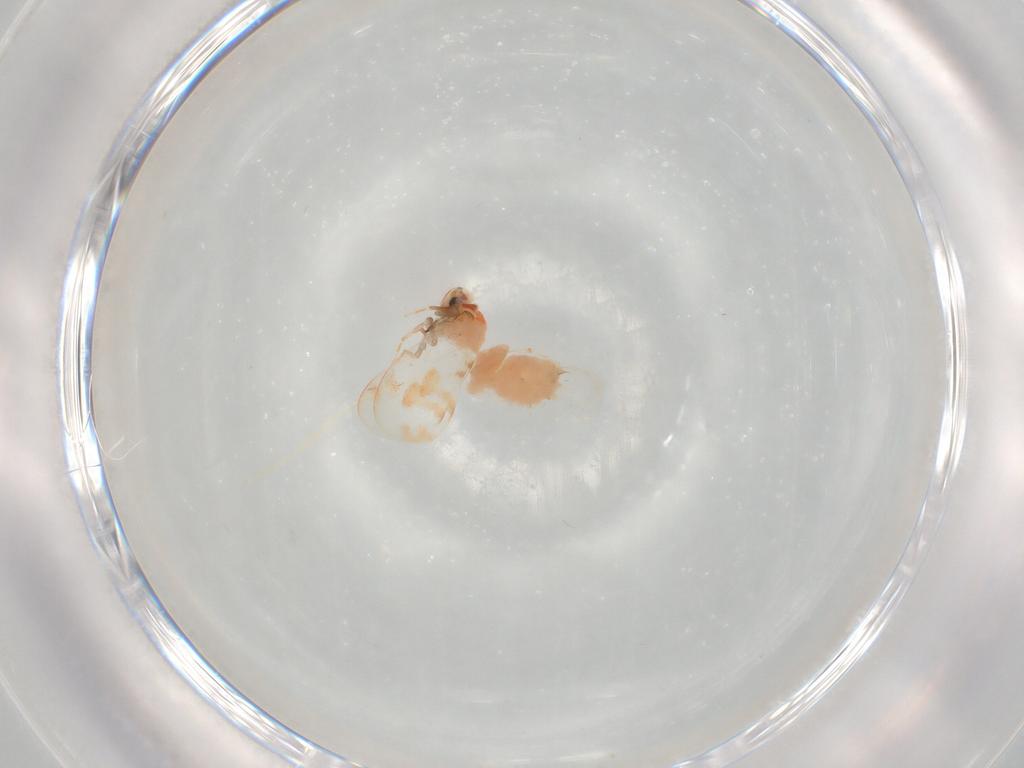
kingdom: Animalia
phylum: Arthropoda
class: Insecta
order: Hemiptera
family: Aleyrodidae
